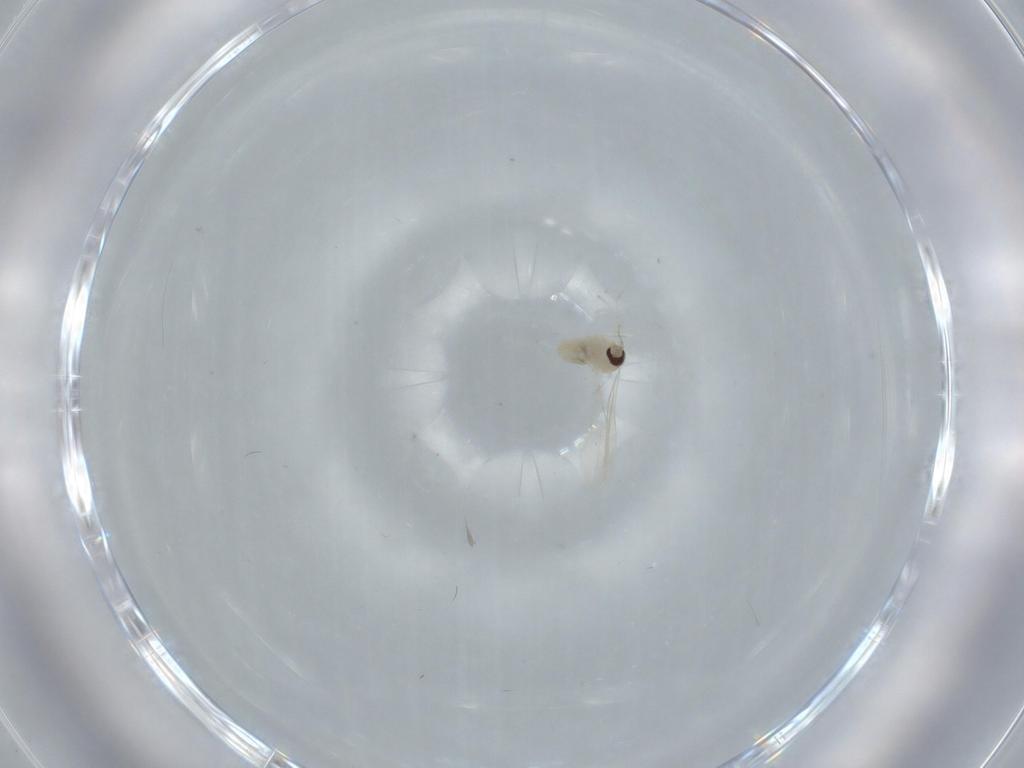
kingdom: Animalia
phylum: Arthropoda
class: Insecta
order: Diptera
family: Cecidomyiidae
